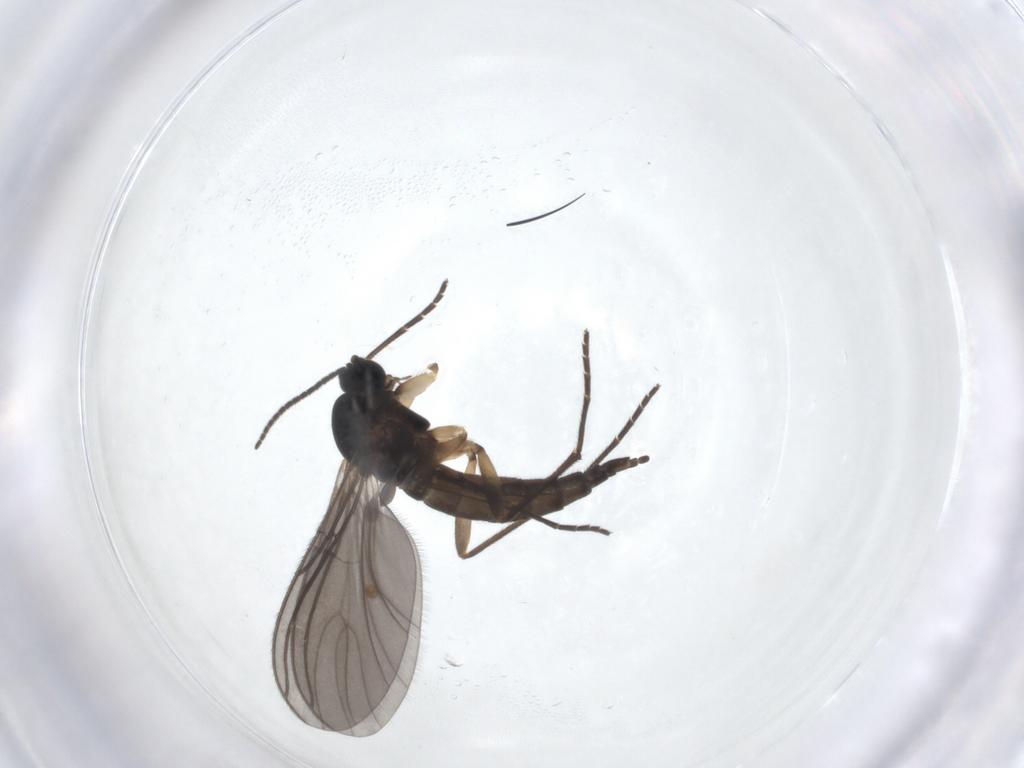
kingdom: Animalia
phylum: Arthropoda
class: Insecta
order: Diptera
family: Sciaridae
